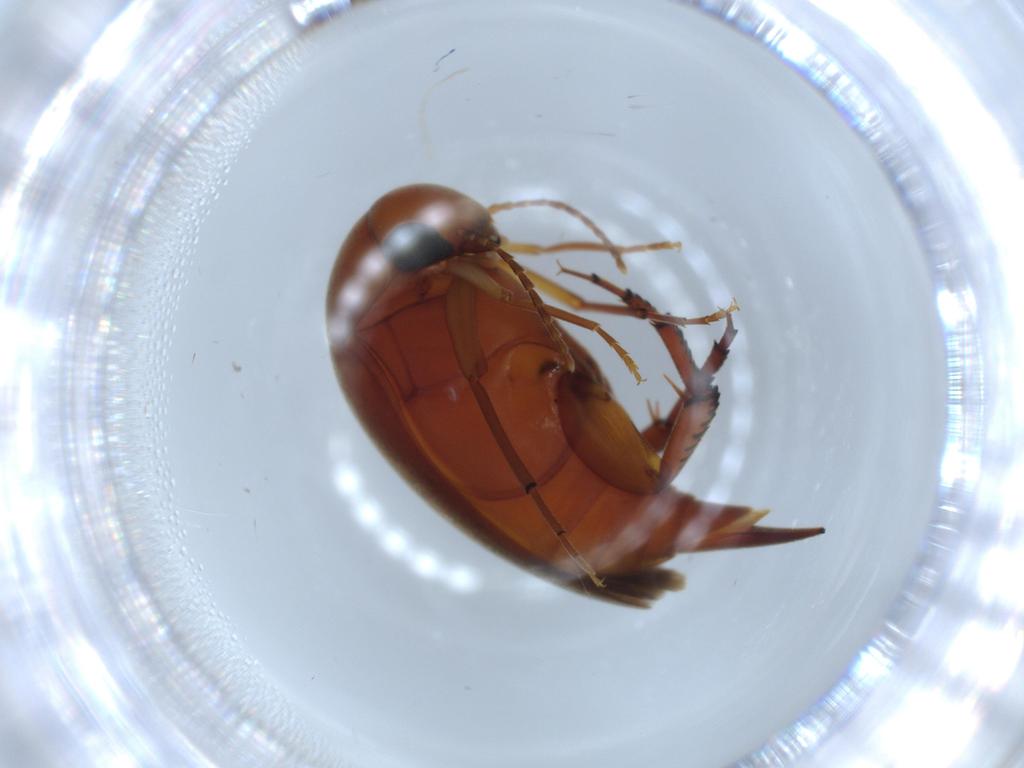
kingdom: Animalia
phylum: Arthropoda
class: Insecta
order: Coleoptera
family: Mordellidae
